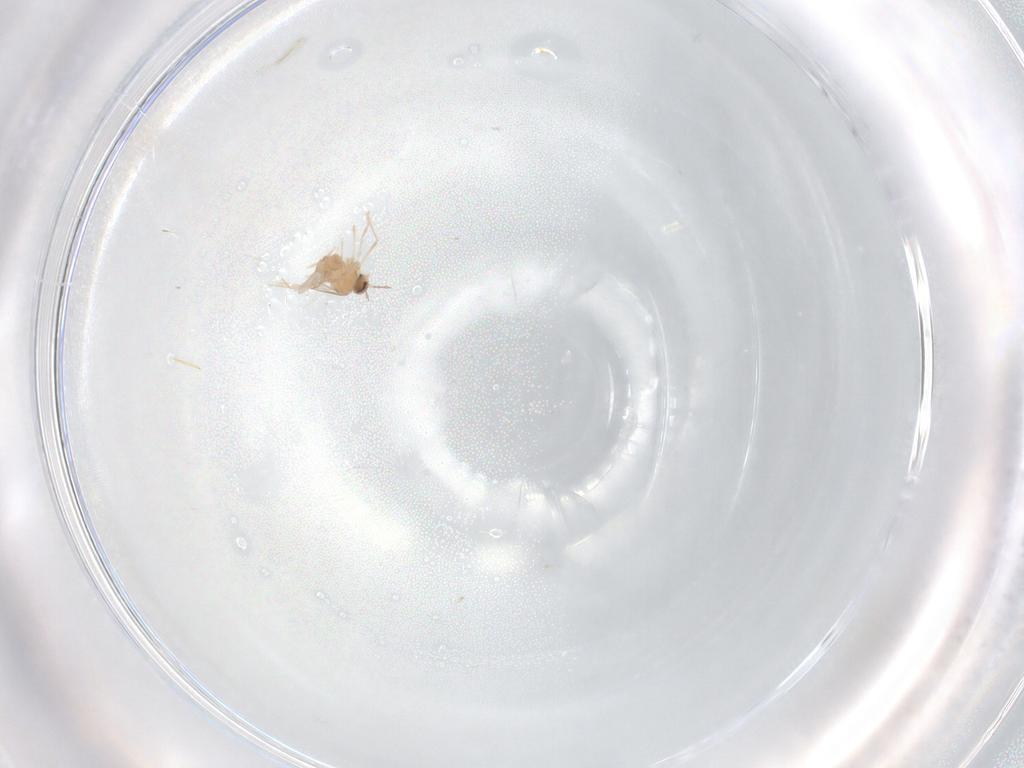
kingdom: Animalia
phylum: Arthropoda
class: Insecta
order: Diptera
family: Cecidomyiidae
